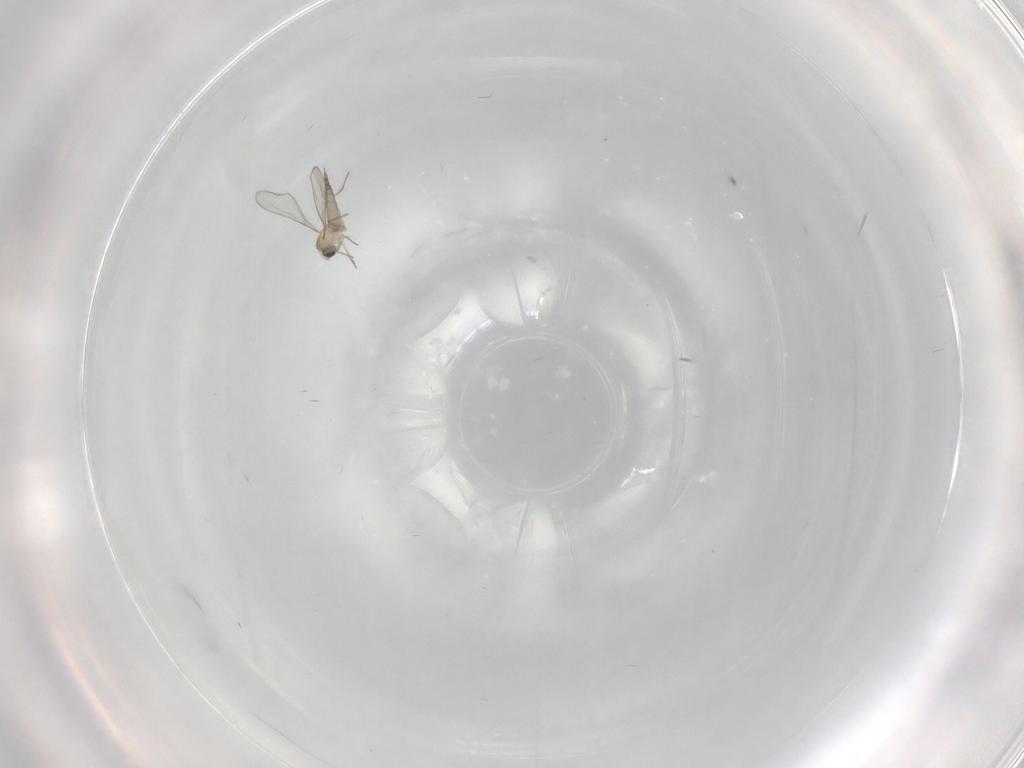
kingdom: Animalia
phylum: Arthropoda
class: Insecta
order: Diptera
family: Cecidomyiidae
